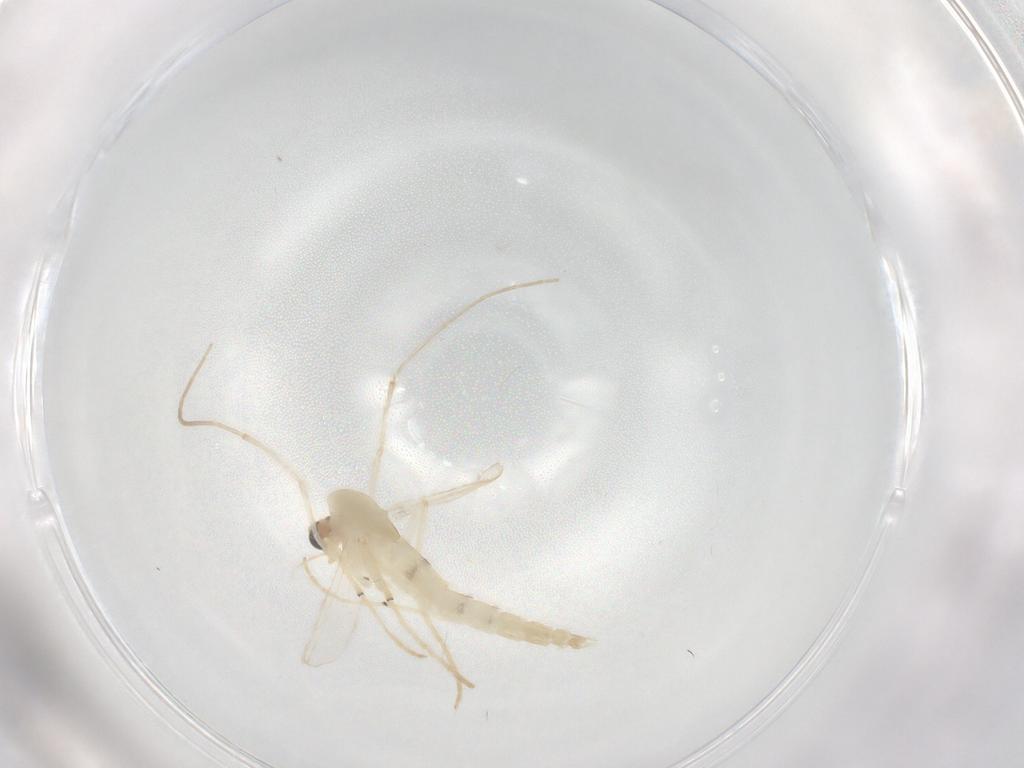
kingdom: Animalia
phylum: Arthropoda
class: Insecta
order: Diptera
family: Chironomidae
